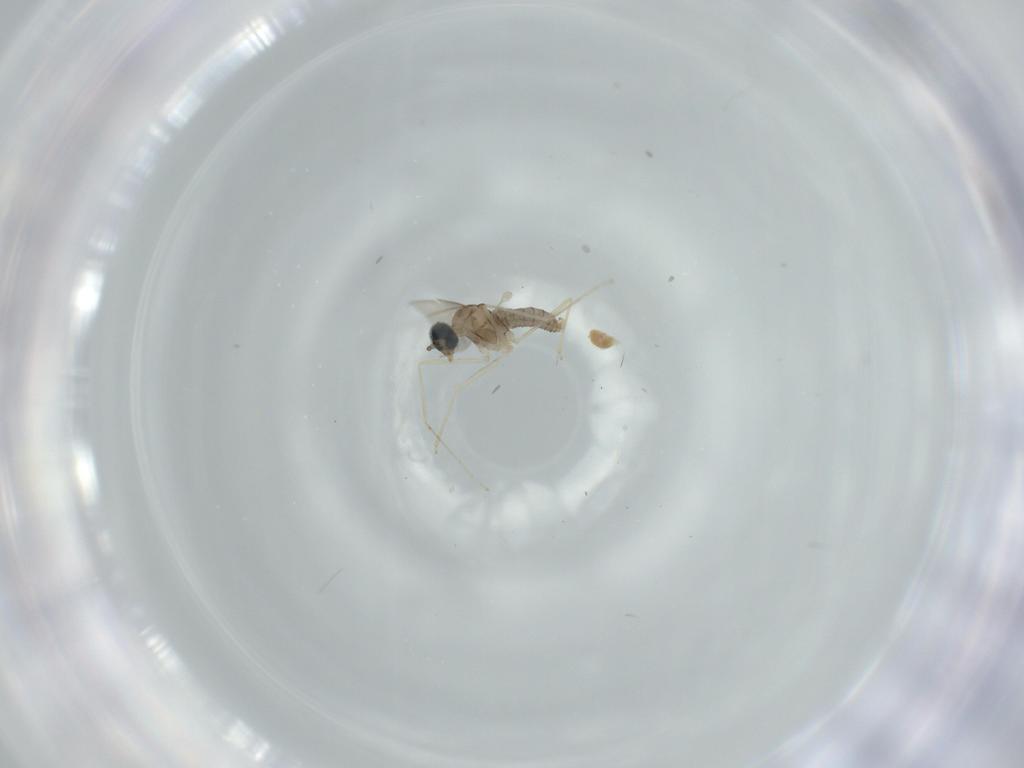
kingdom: Animalia
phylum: Arthropoda
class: Insecta
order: Diptera
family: Cecidomyiidae
